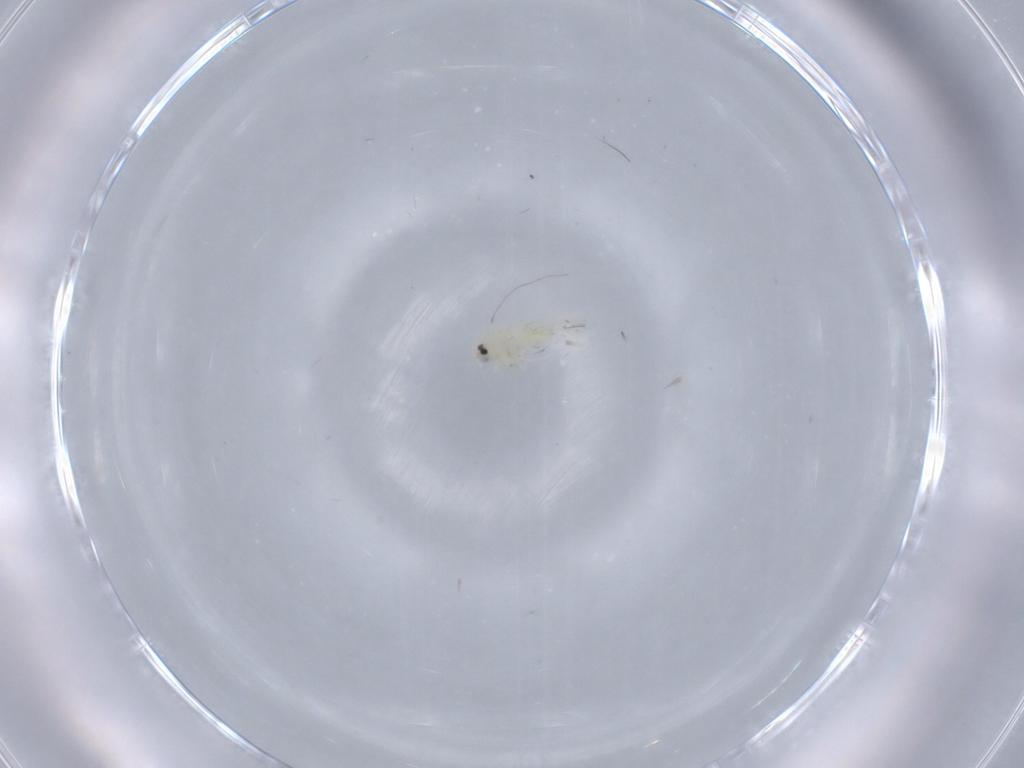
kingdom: Animalia
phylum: Arthropoda
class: Insecta
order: Hemiptera
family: Aleyrodidae
